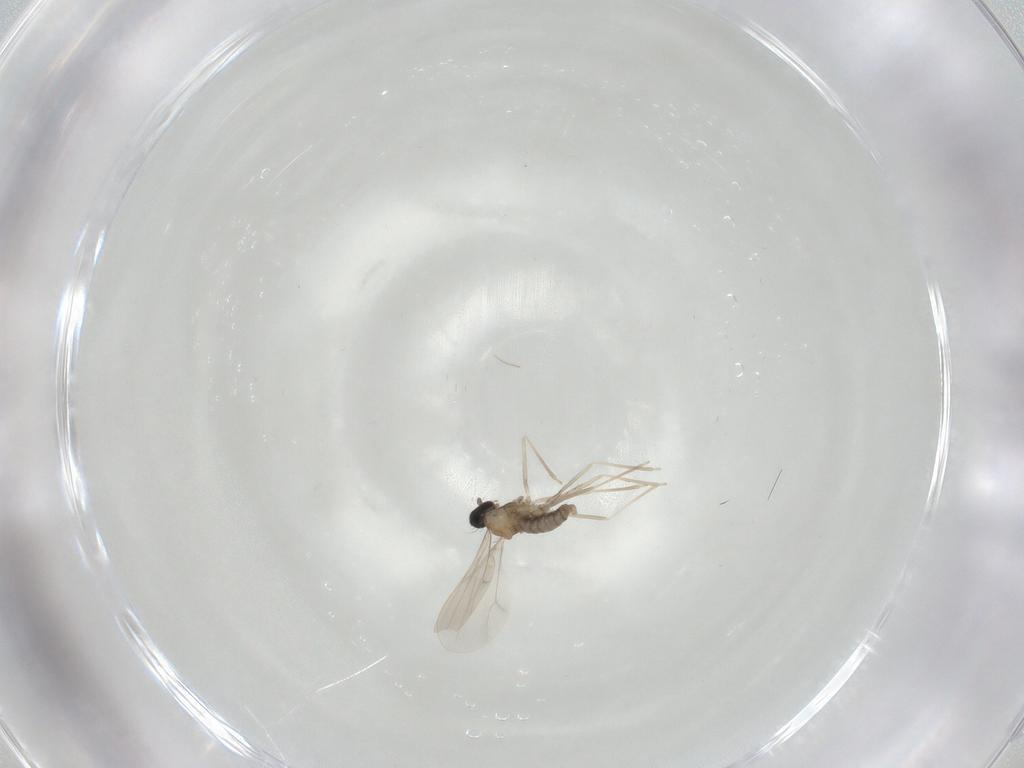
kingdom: Animalia
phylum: Arthropoda
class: Insecta
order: Diptera
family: Cecidomyiidae
